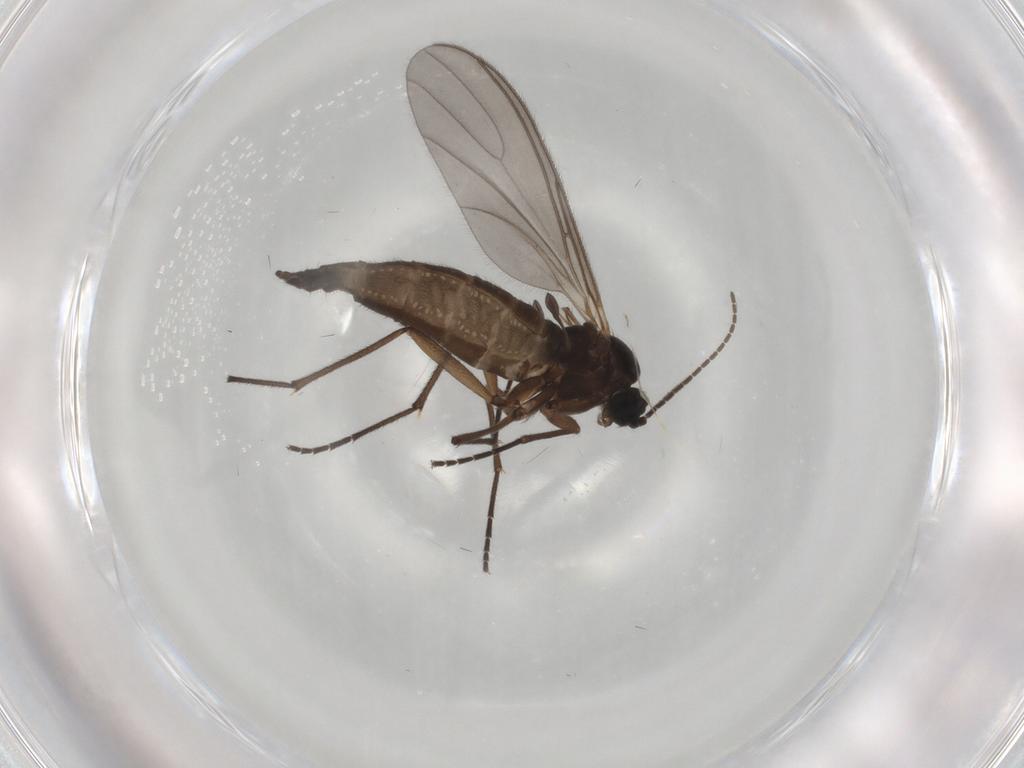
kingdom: Animalia
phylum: Arthropoda
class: Insecta
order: Diptera
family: Sciaridae
